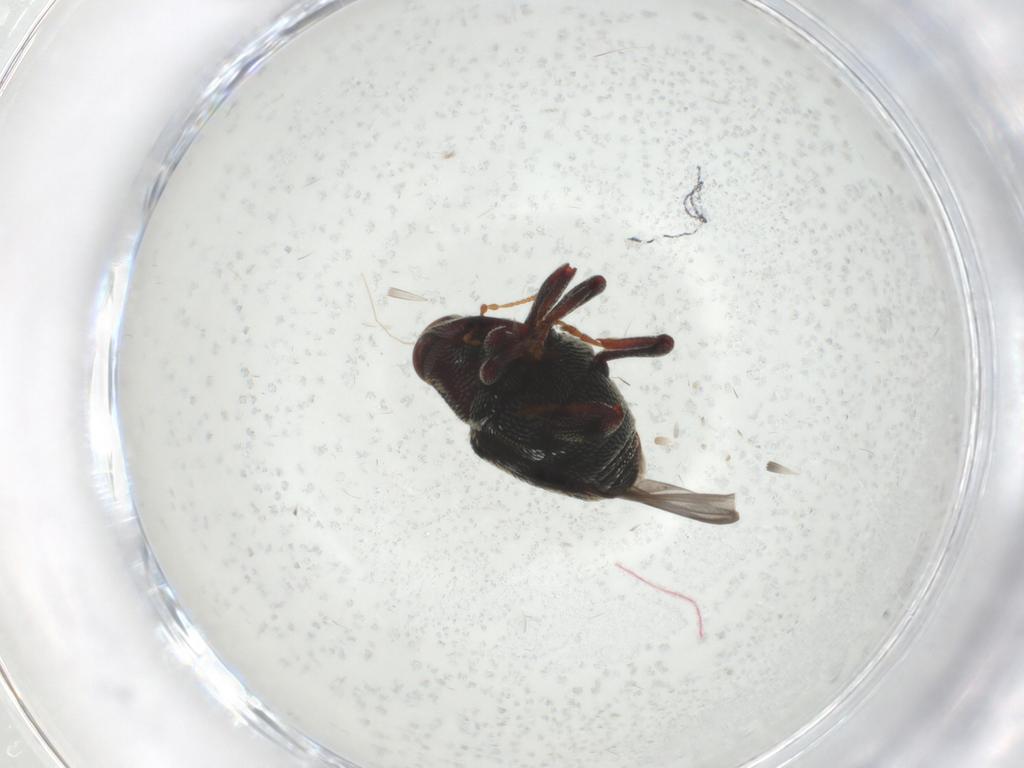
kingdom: Animalia
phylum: Arthropoda
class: Insecta
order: Coleoptera
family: Curculionidae
